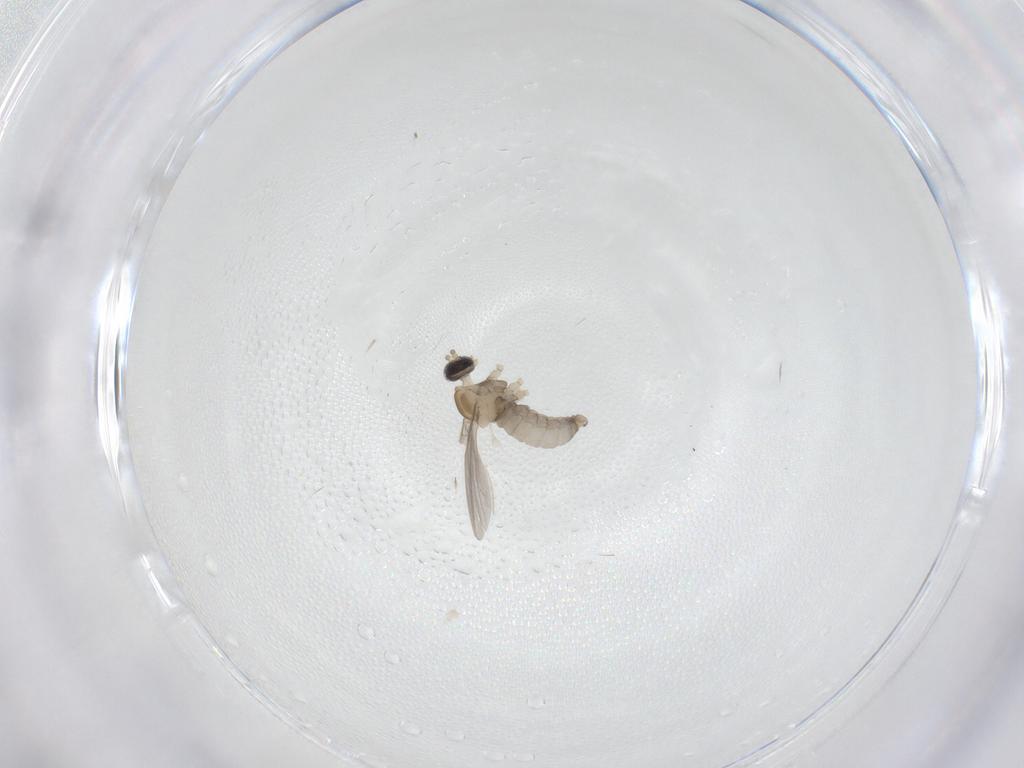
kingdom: Animalia
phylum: Arthropoda
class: Insecta
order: Diptera
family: Cecidomyiidae
